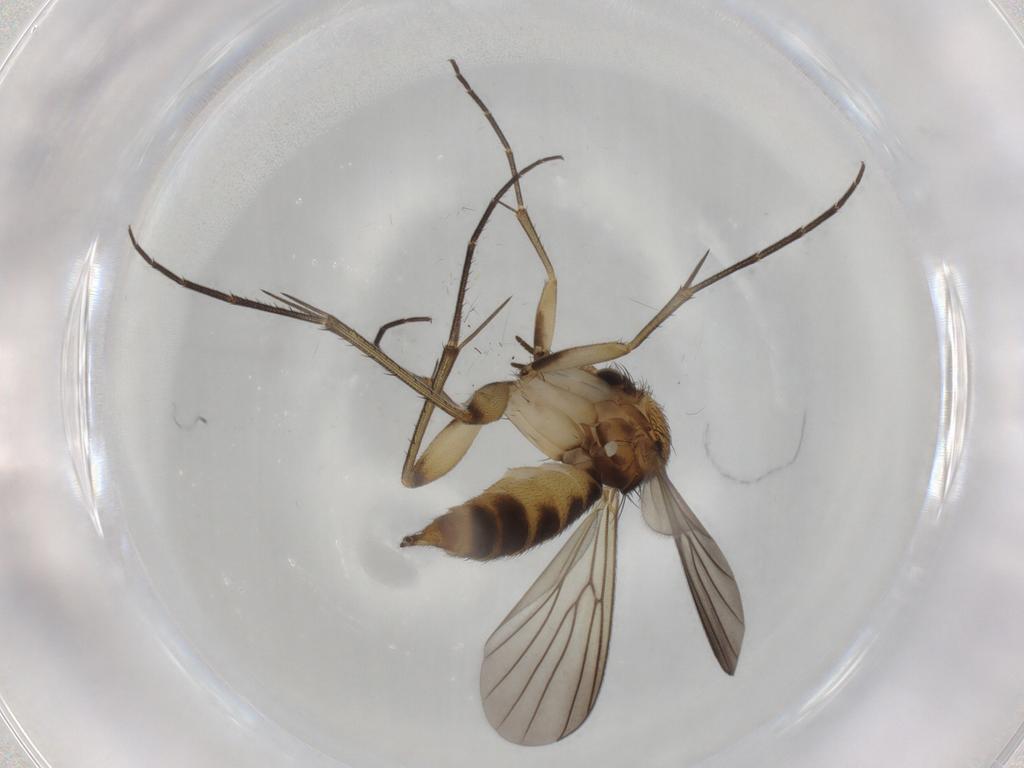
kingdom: Animalia
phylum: Arthropoda
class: Insecta
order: Diptera
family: Mycetophilidae
